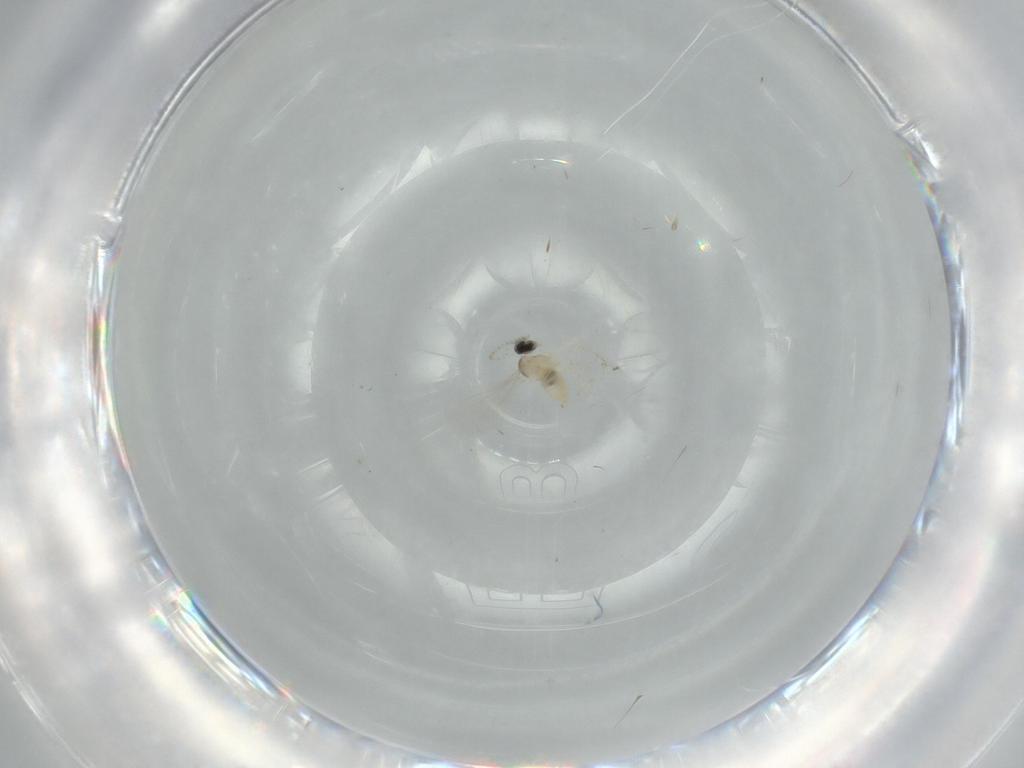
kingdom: Animalia
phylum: Arthropoda
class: Insecta
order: Diptera
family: Cecidomyiidae
